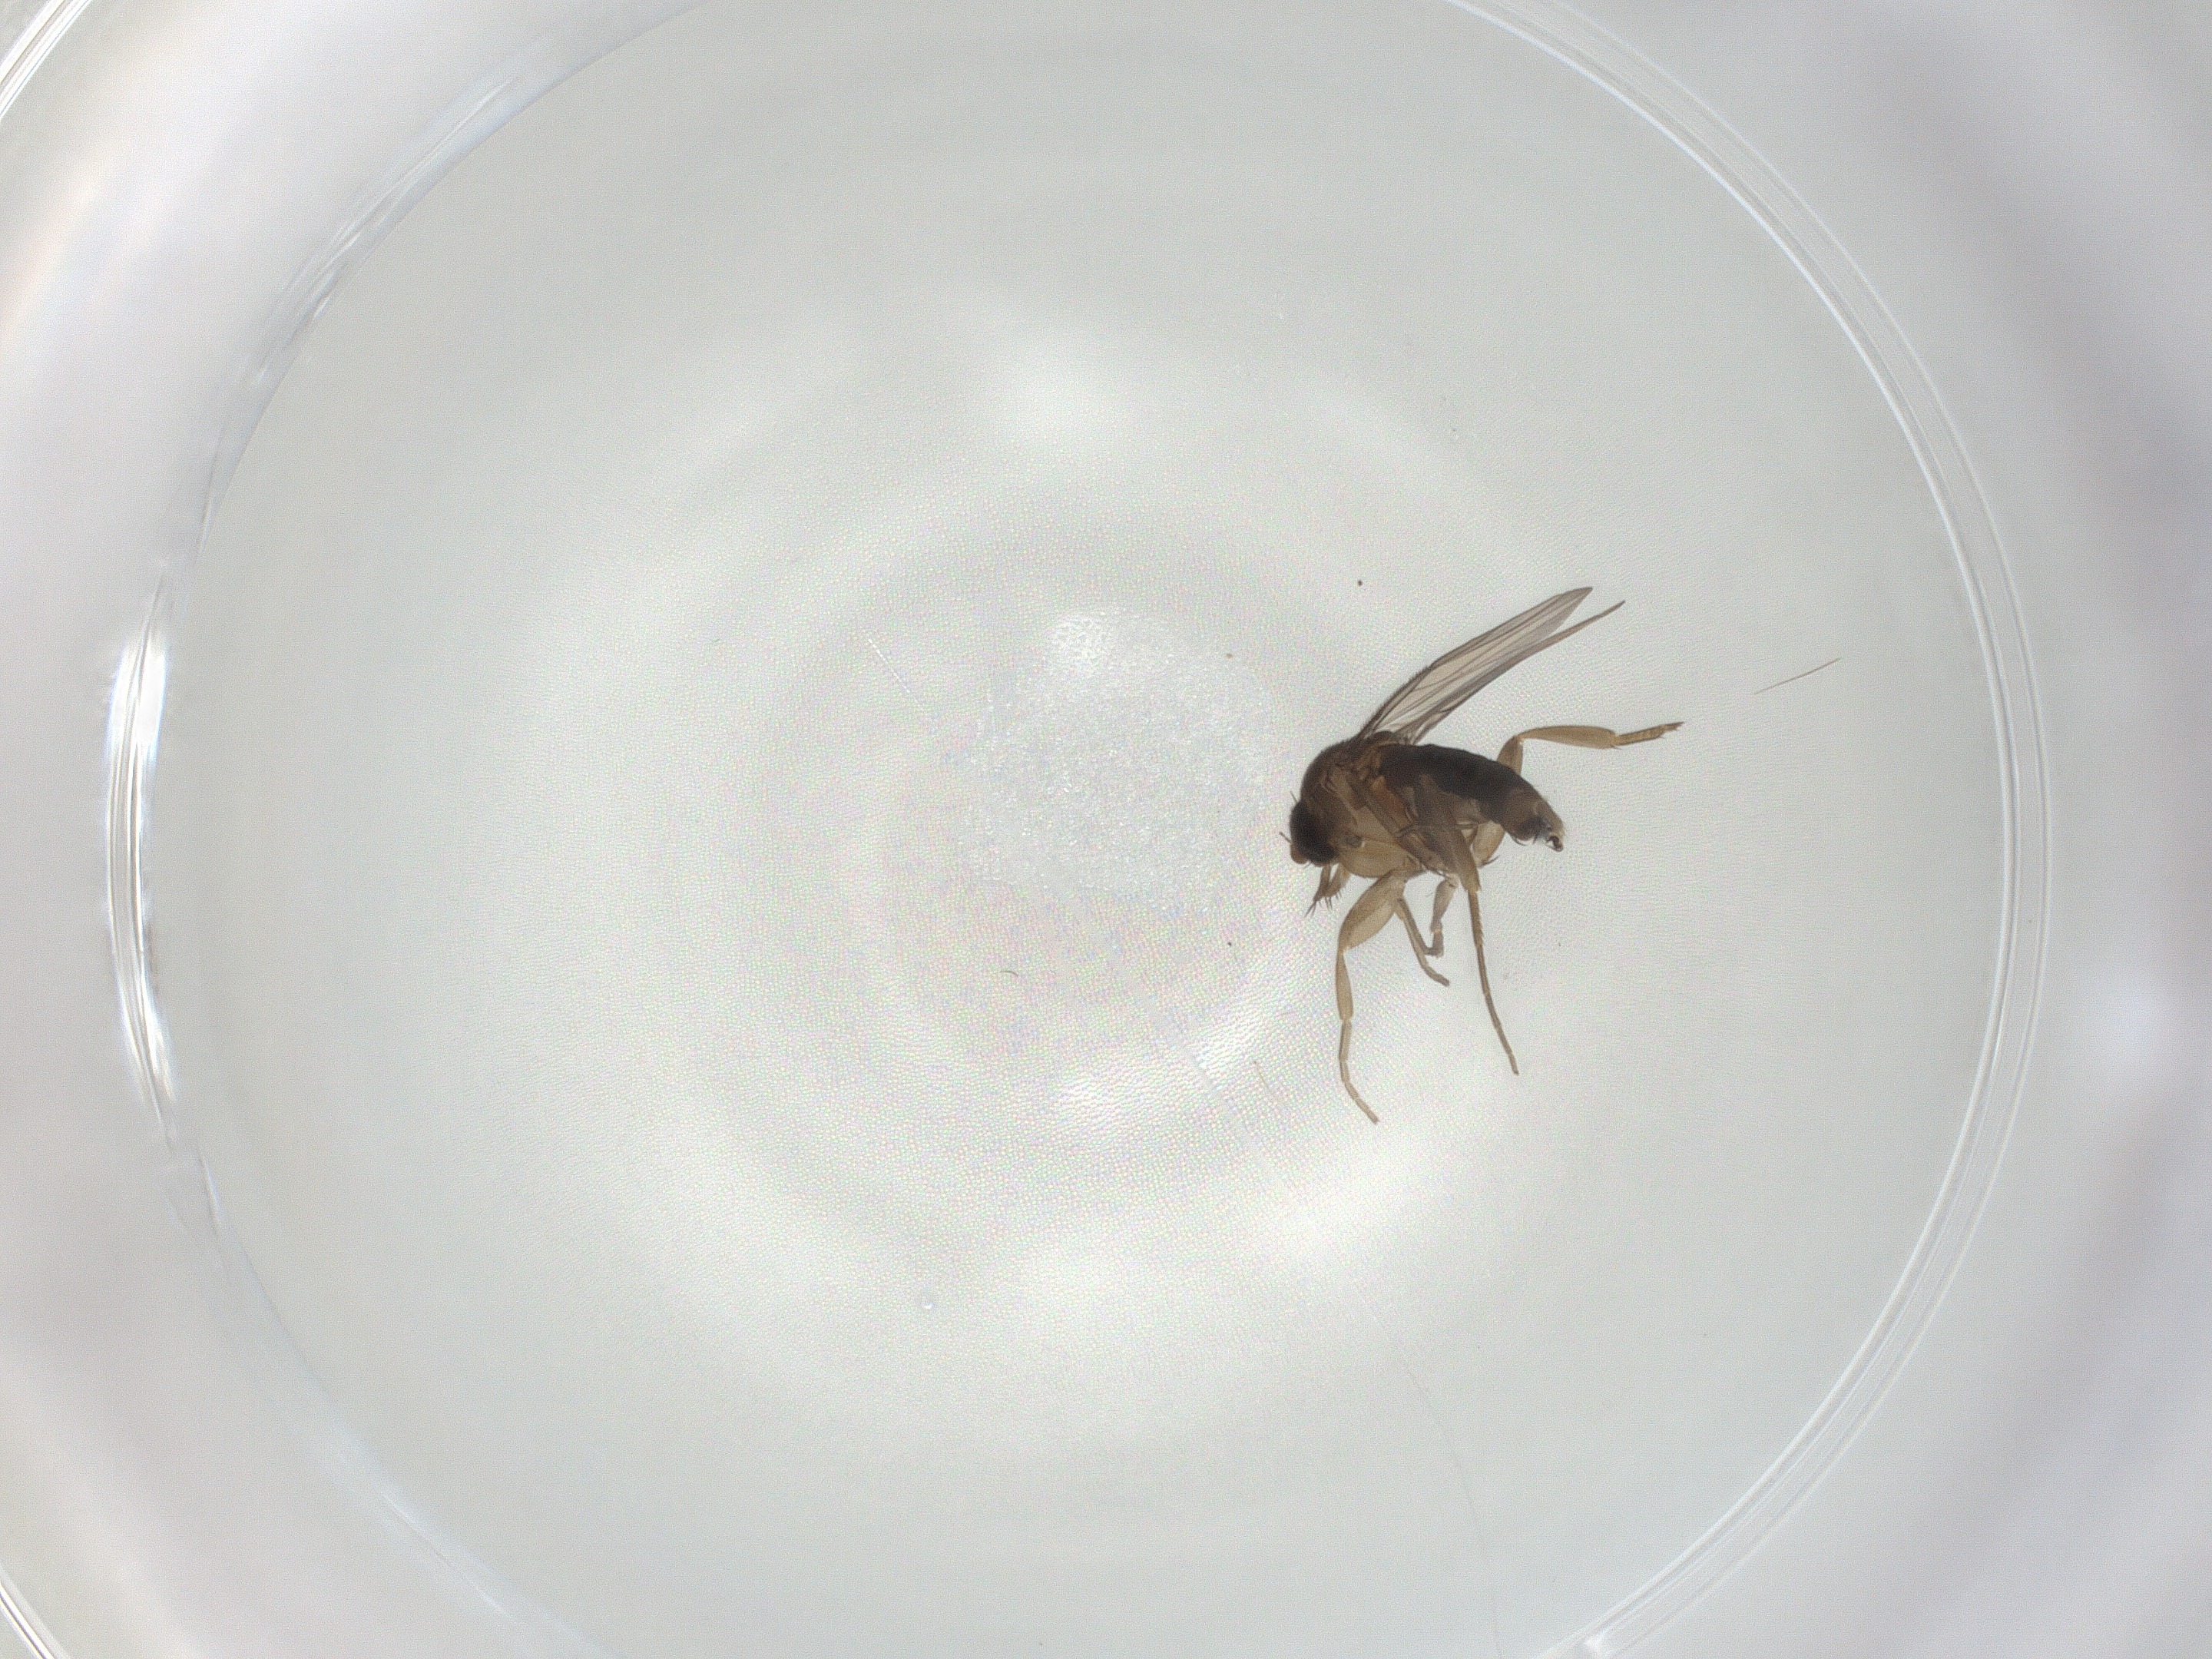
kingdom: Animalia
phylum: Arthropoda
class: Insecta
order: Diptera
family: Phoridae
